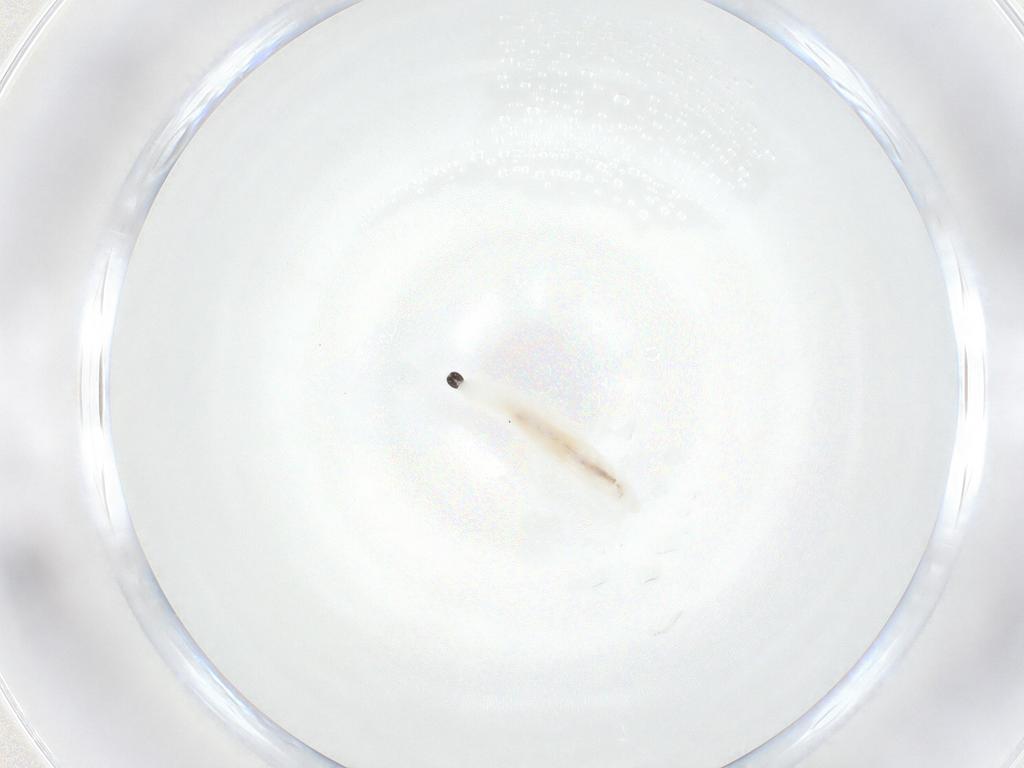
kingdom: Animalia
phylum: Arthropoda
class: Insecta
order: Diptera
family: Sciaridae
